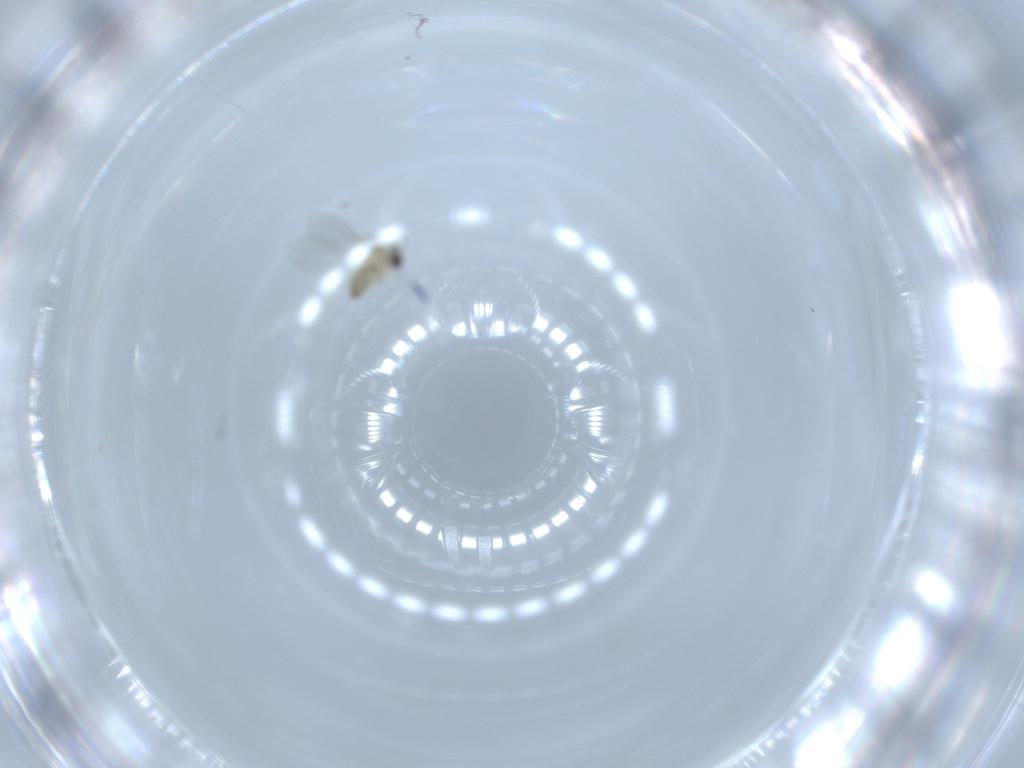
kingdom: Animalia
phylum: Arthropoda
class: Insecta
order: Diptera
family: Cecidomyiidae
